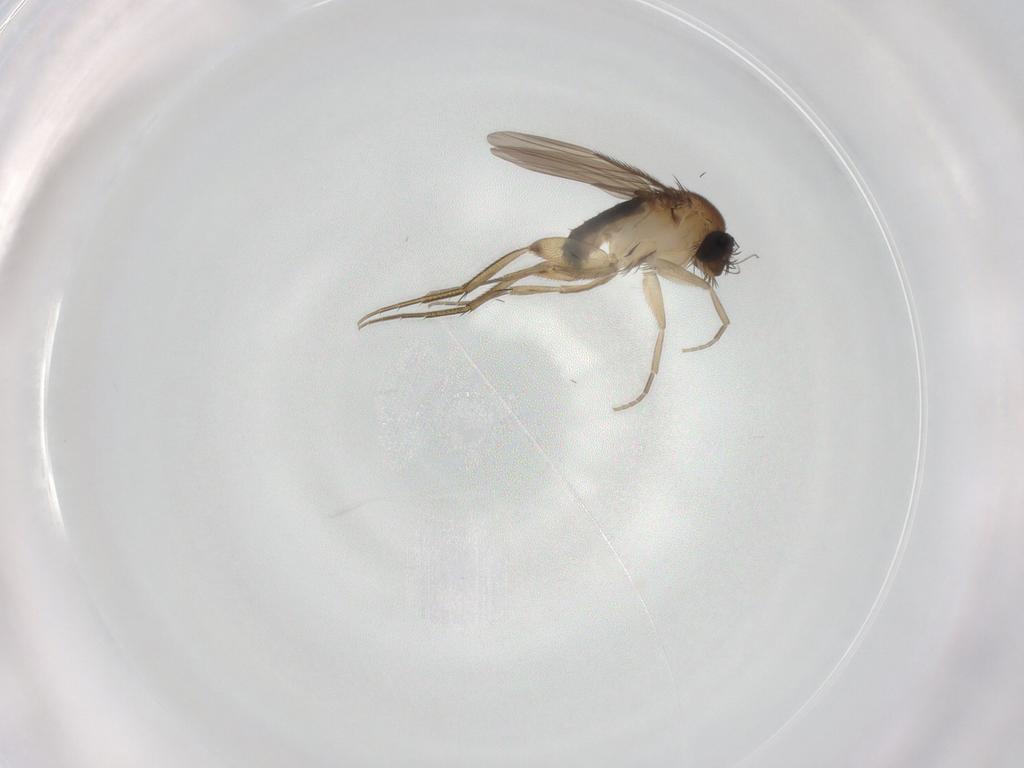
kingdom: Animalia
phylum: Arthropoda
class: Insecta
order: Diptera
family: Phoridae
